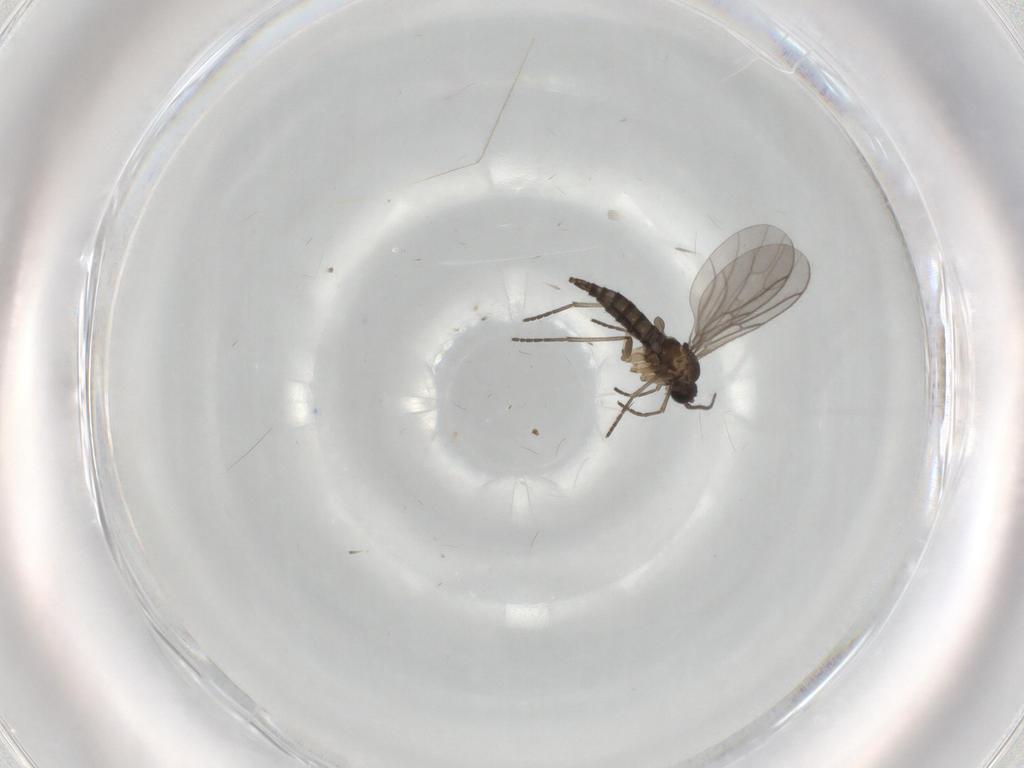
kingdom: Animalia
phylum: Arthropoda
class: Insecta
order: Diptera
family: Sciaridae
